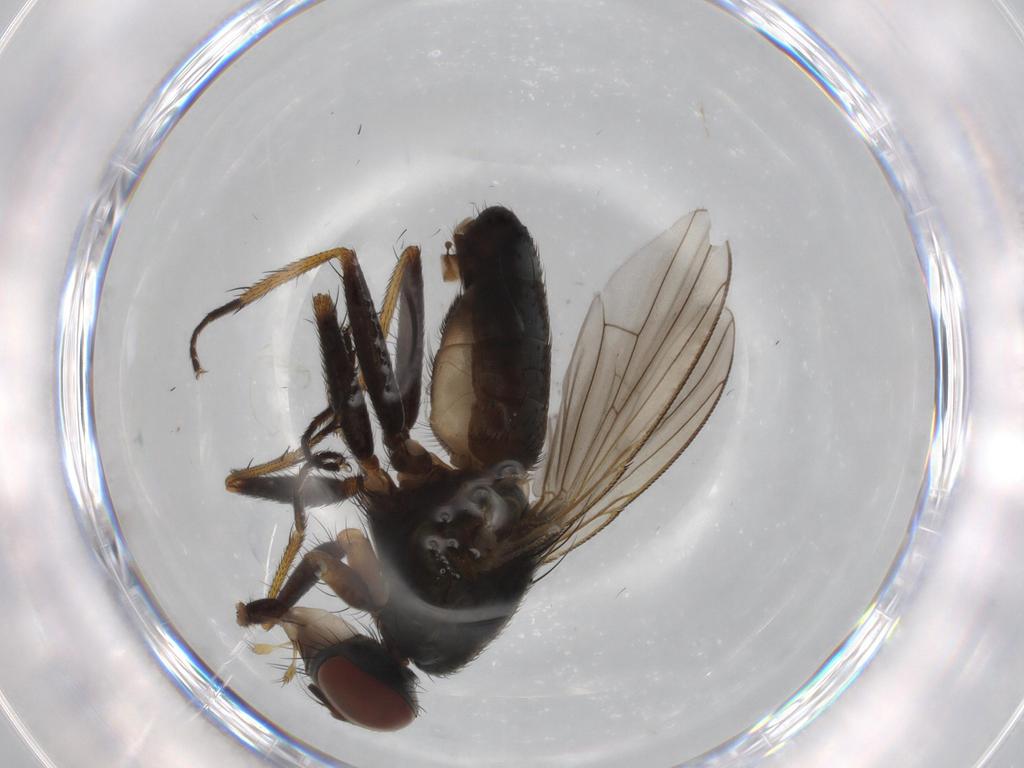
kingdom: Animalia
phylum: Arthropoda
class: Insecta
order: Diptera
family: Muscidae
